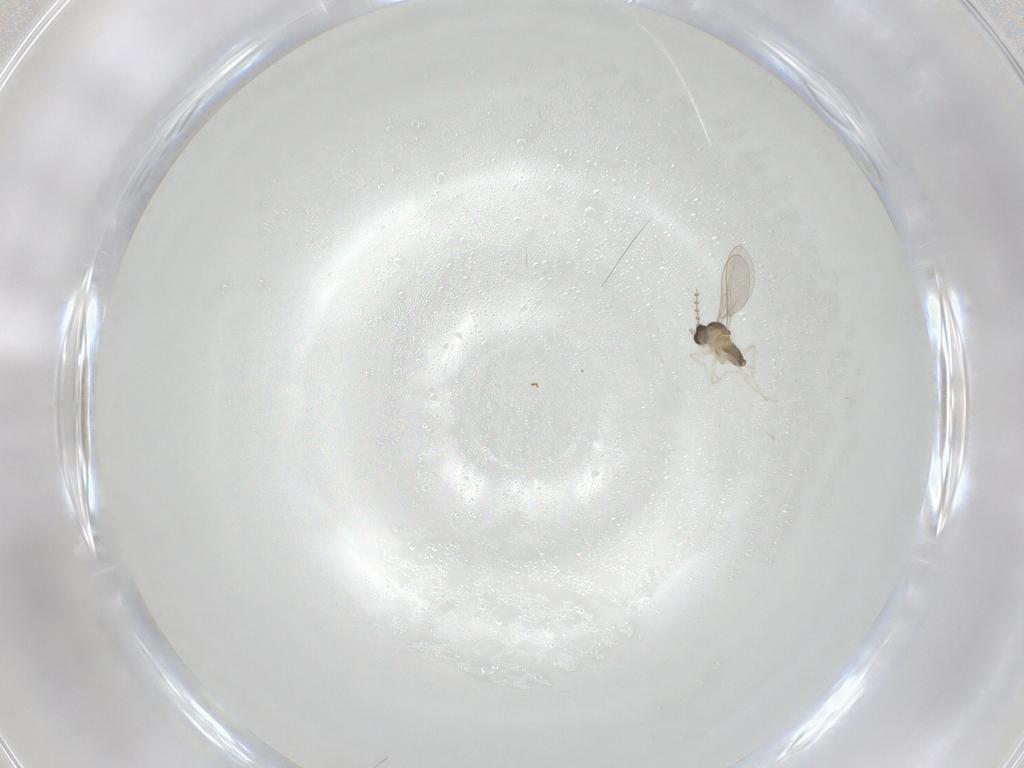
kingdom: Animalia
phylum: Arthropoda
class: Insecta
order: Diptera
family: Cecidomyiidae
